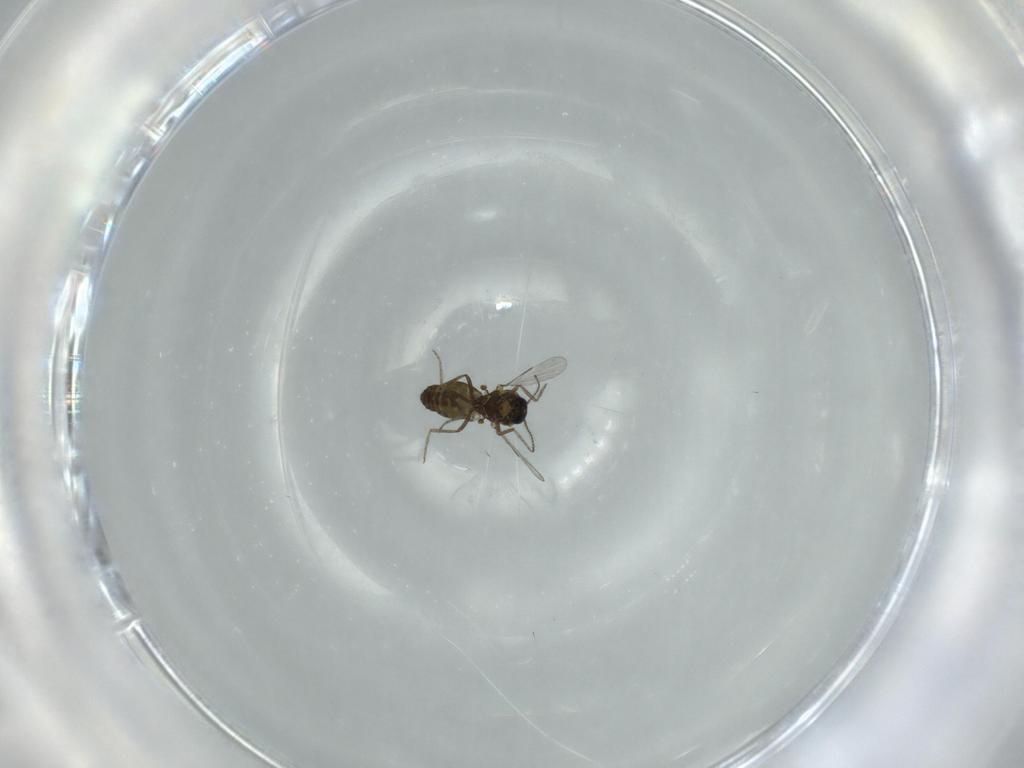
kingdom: Animalia
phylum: Arthropoda
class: Insecta
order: Diptera
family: Milichiidae
